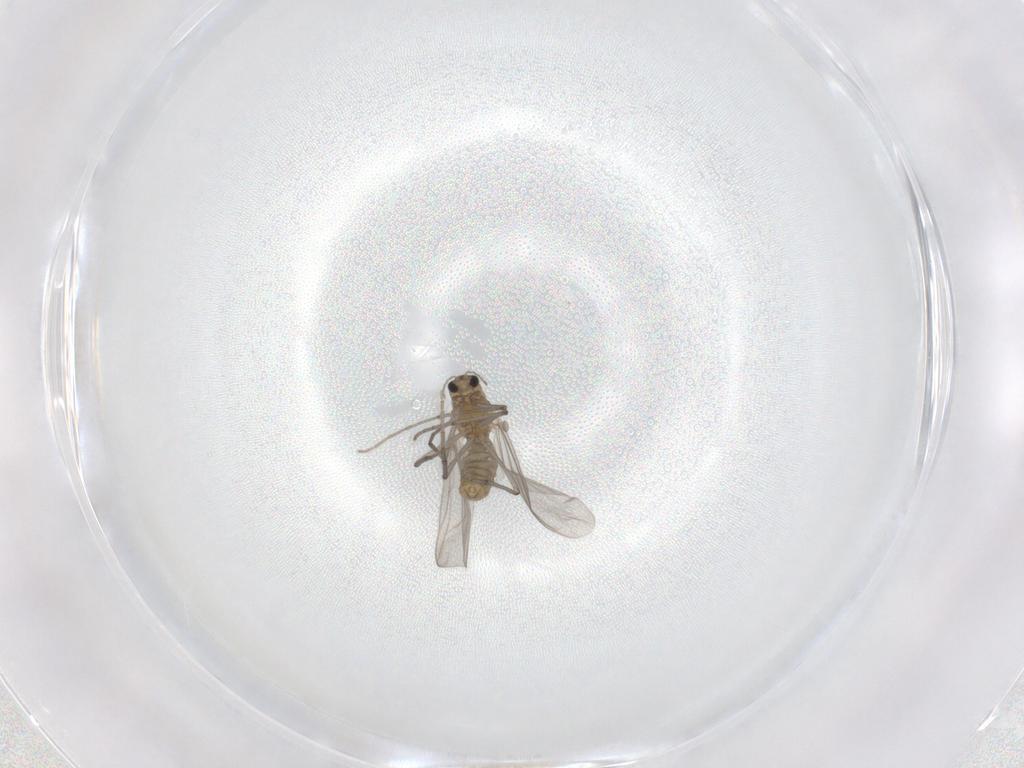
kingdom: Animalia
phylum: Arthropoda
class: Insecta
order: Diptera
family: Chironomidae
